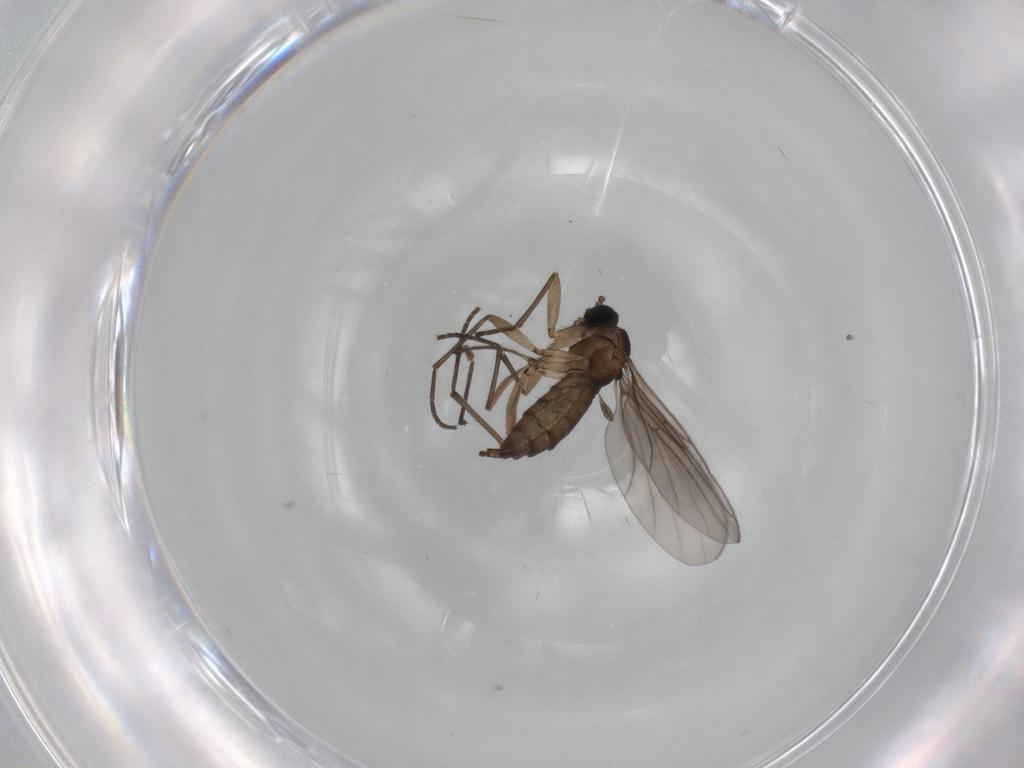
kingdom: Animalia
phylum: Arthropoda
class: Insecta
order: Diptera
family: Sciaridae
